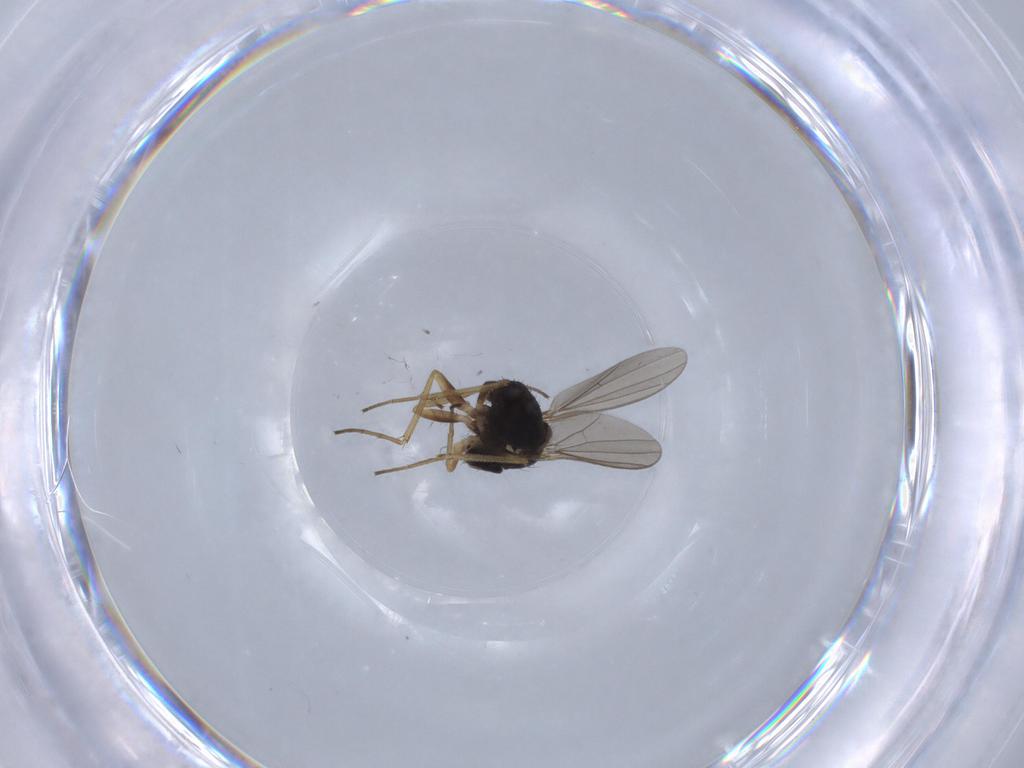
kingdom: Animalia
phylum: Arthropoda
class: Insecta
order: Diptera
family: Dolichopodidae
